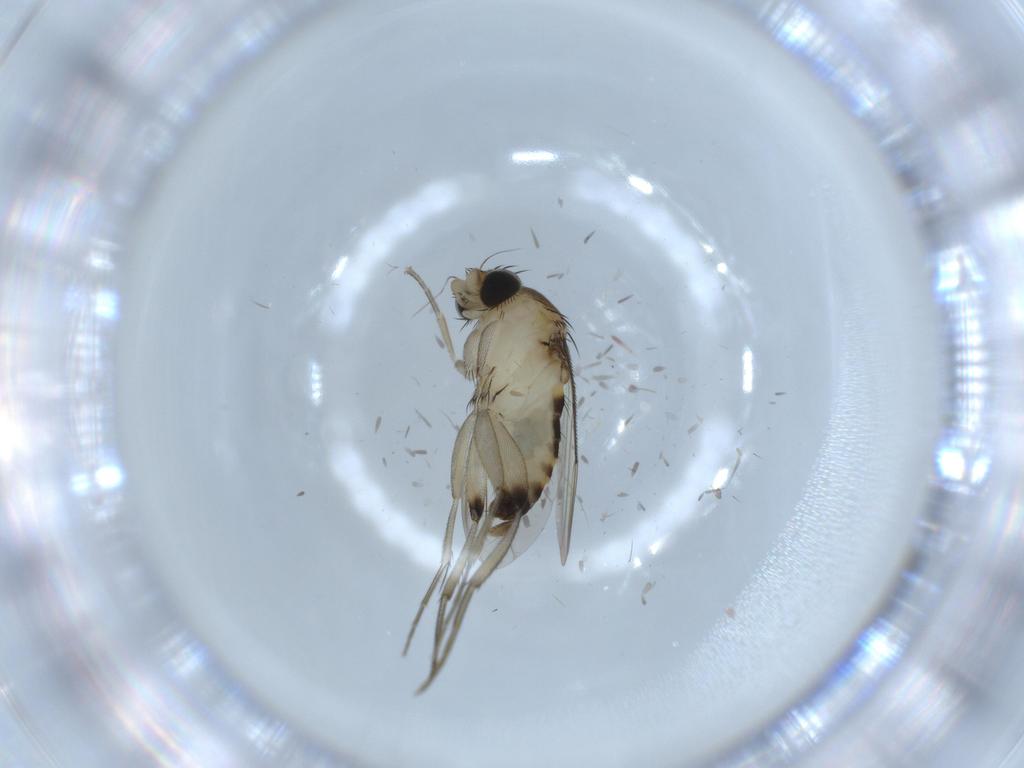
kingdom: Animalia
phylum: Arthropoda
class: Insecta
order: Diptera
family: Phoridae
